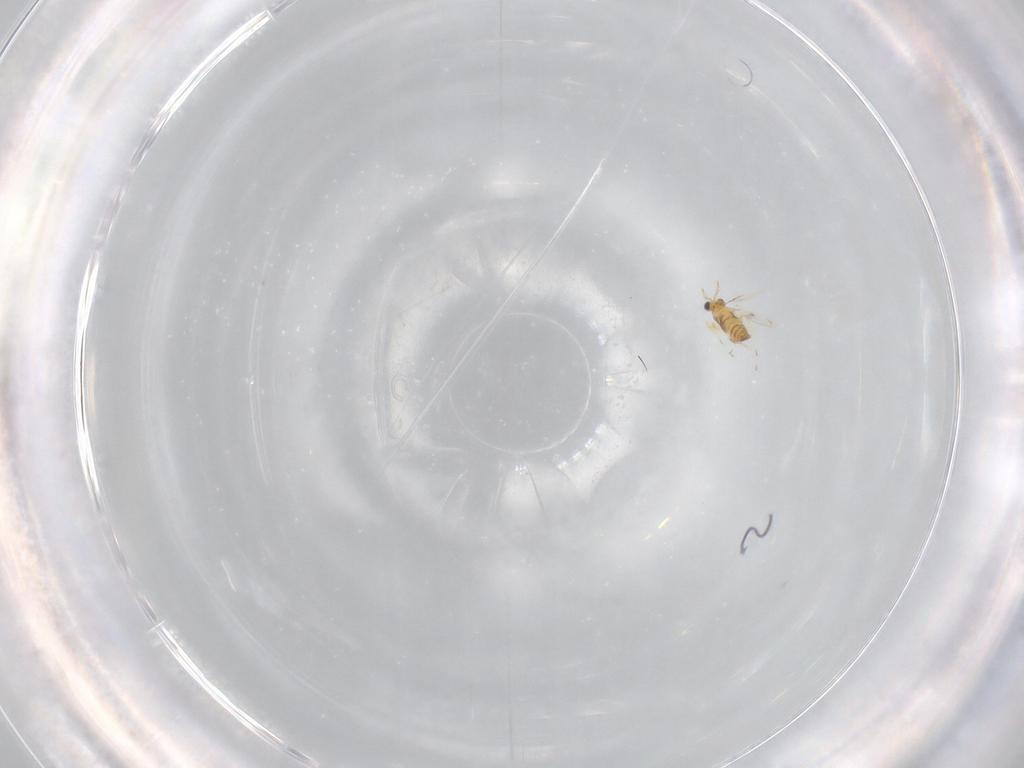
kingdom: Animalia
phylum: Arthropoda
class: Insecta
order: Hymenoptera
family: Trichogrammatidae
